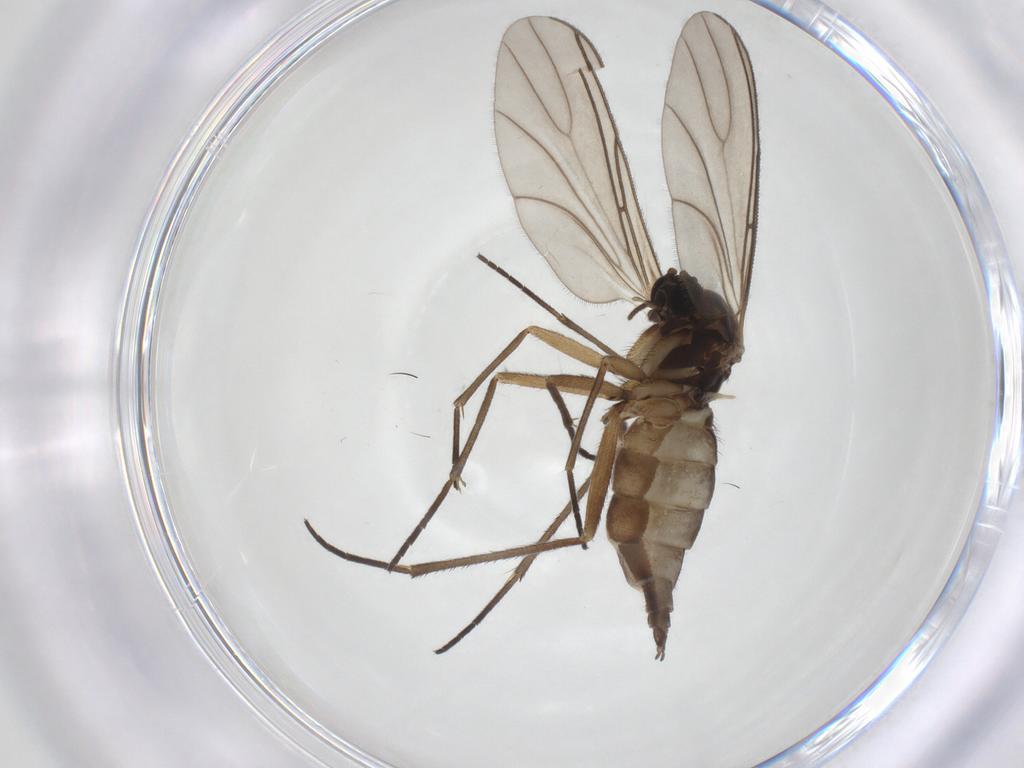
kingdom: Animalia
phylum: Arthropoda
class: Insecta
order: Diptera
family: Sciaridae
